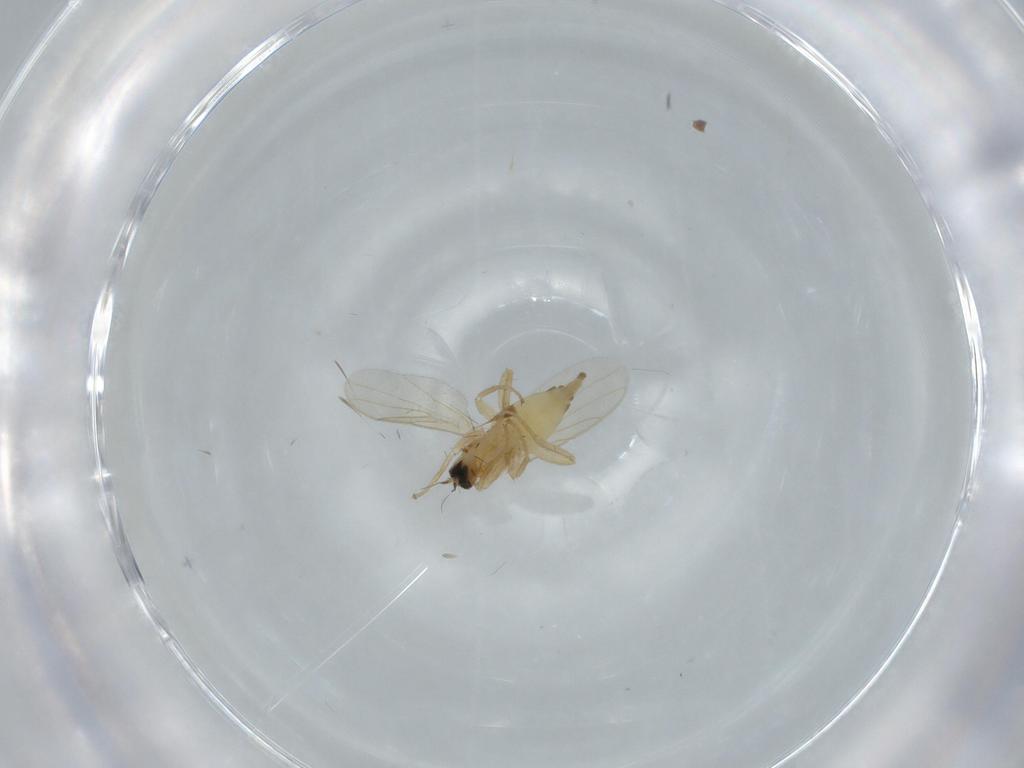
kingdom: Animalia
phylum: Arthropoda
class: Insecta
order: Diptera
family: Hybotidae
